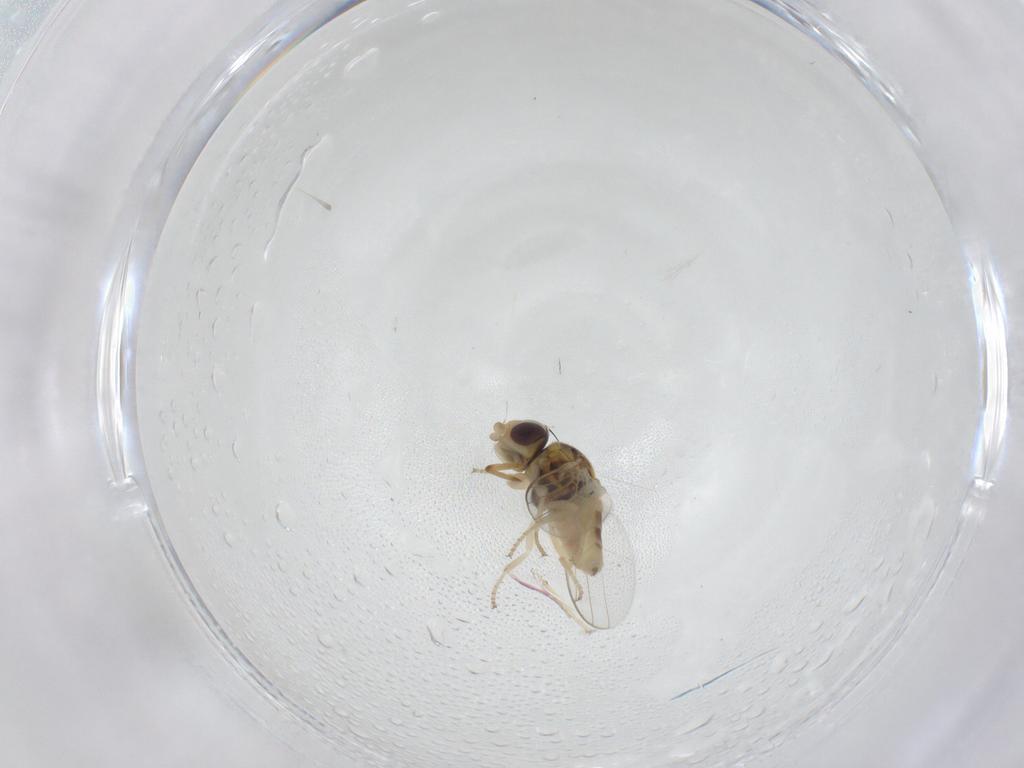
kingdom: Animalia
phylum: Arthropoda
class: Insecta
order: Diptera
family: Chloropidae
